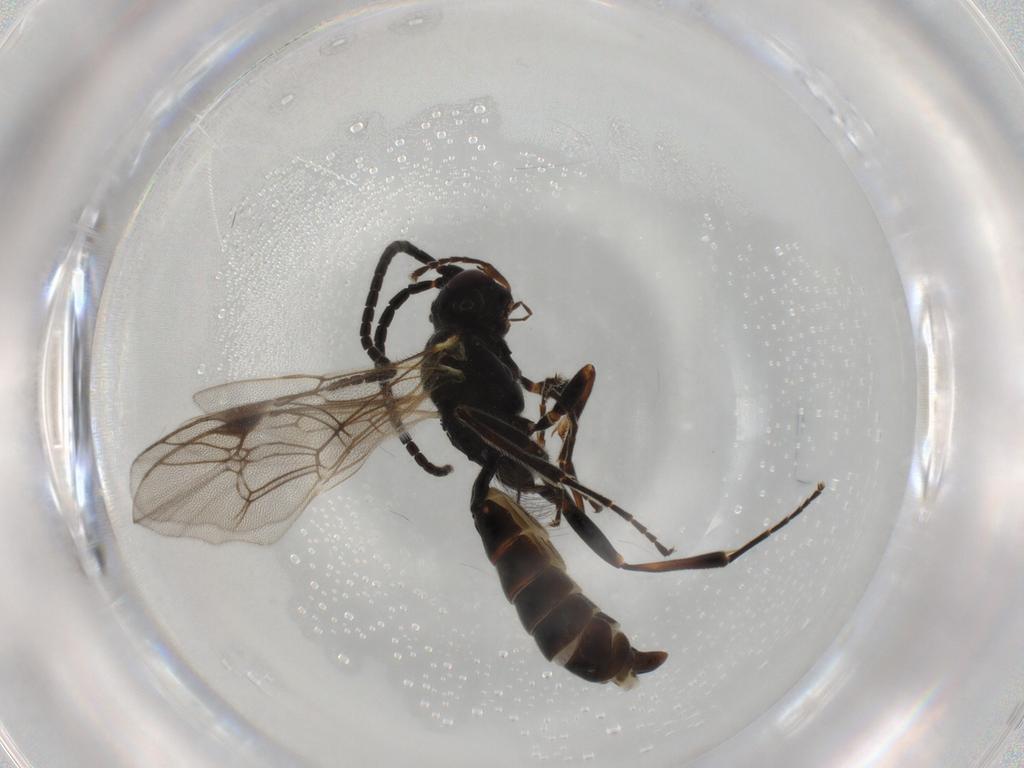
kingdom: Animalia
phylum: Arthropoda
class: Insecta
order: Hymenoptera
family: Ichneumonidae
